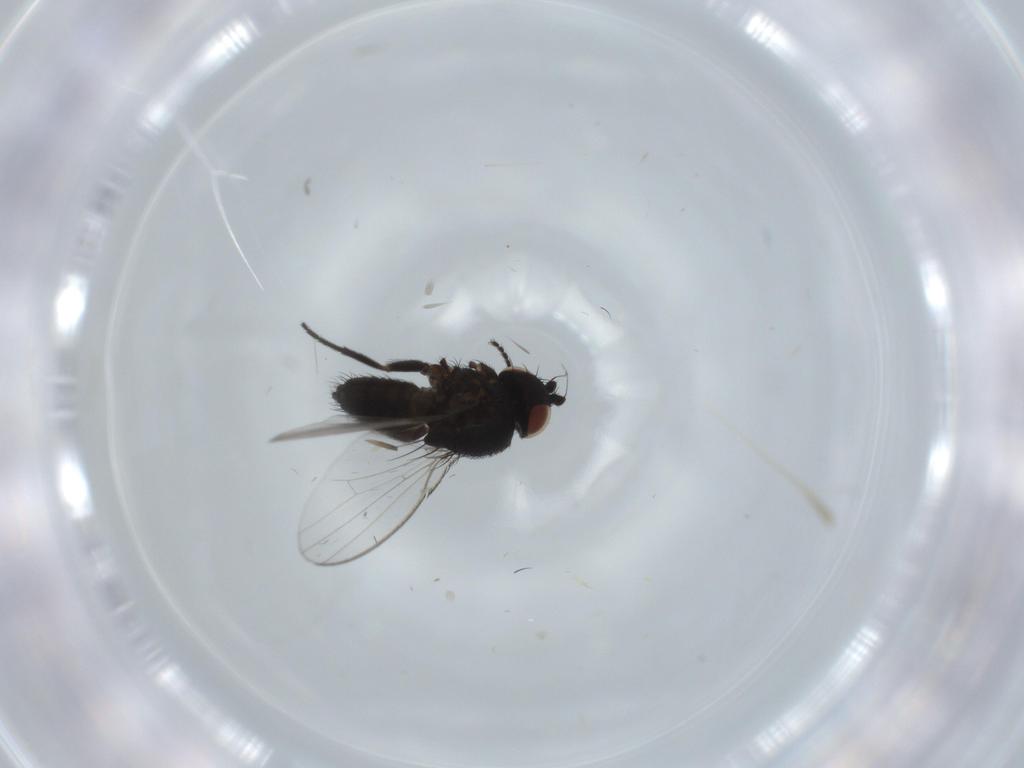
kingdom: Animalia
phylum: Arthropoda
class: Insecta
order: Diptera
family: Milichiidae
